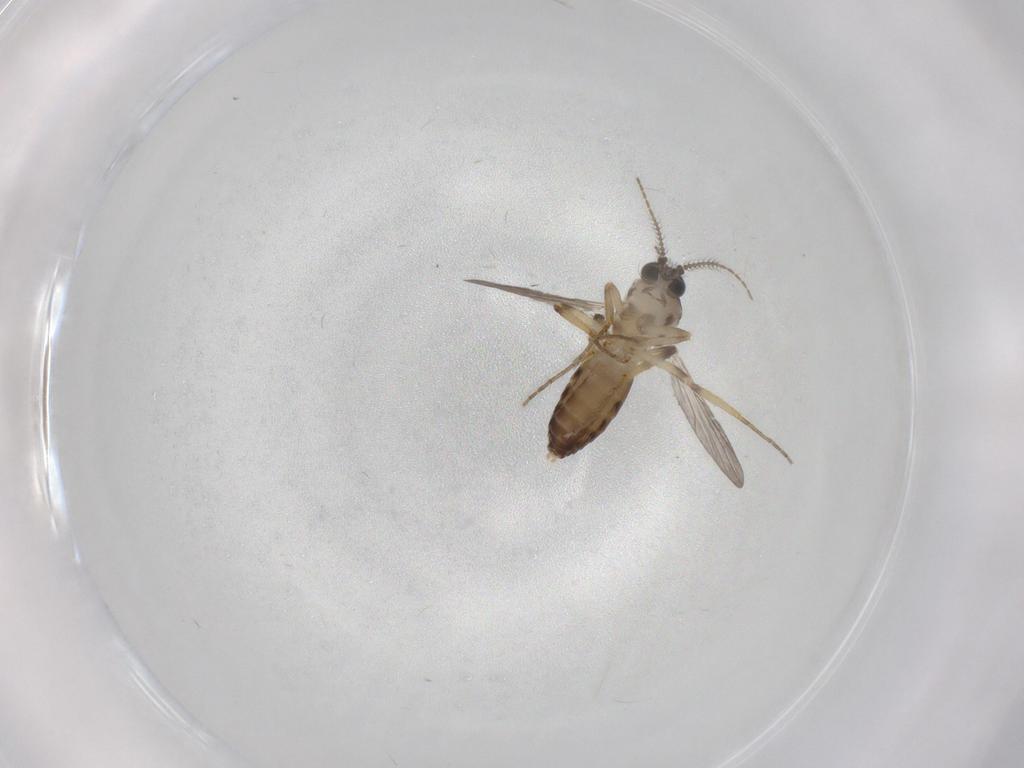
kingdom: Animalia
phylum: Arthropoda
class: Insecta
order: Diptera
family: Ceratopogonidae
